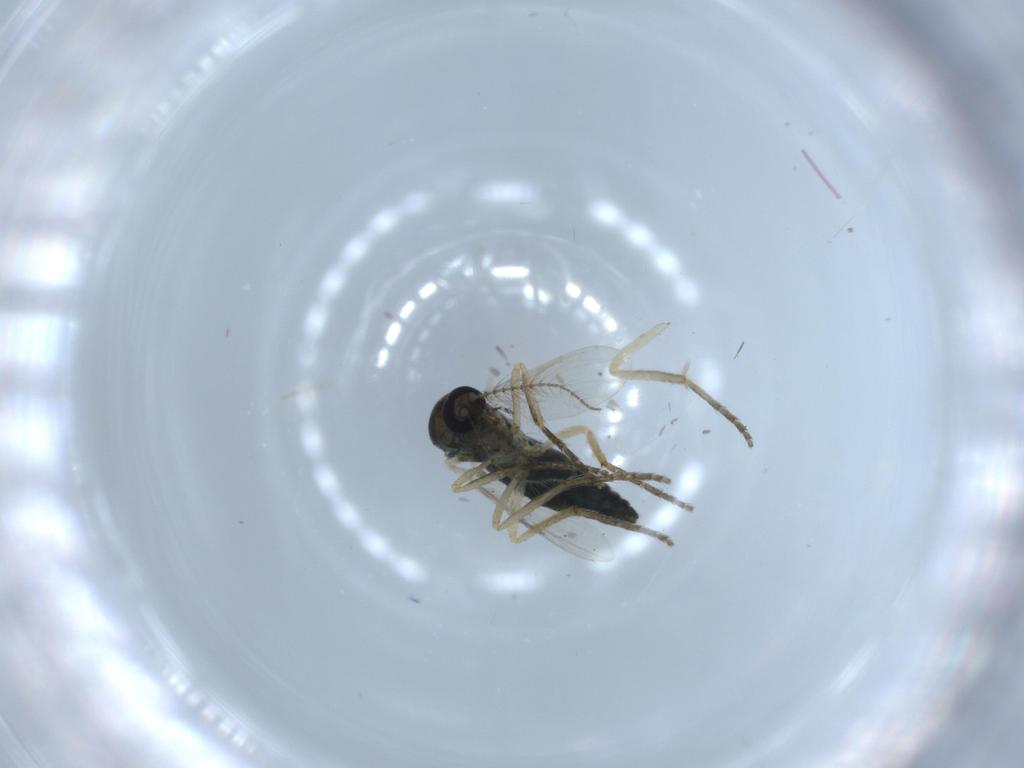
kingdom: Animalia
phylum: Arthropoda
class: Insecta
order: Diptera
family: Ceratopogonidae
